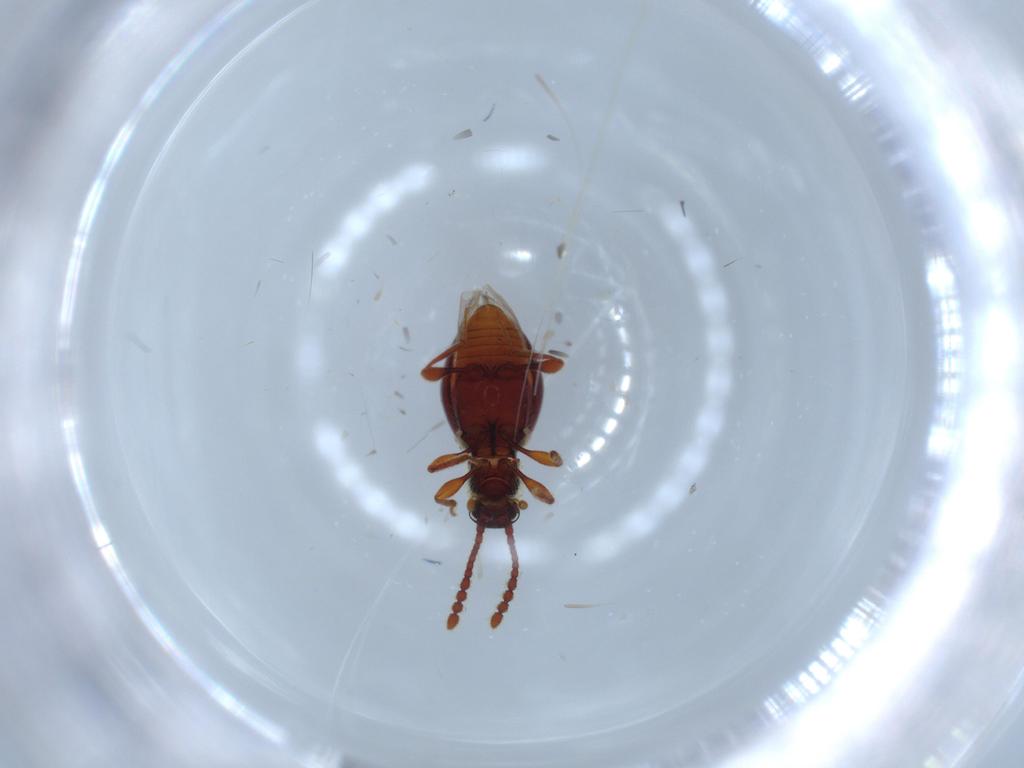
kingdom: Animalia
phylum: Arthropoda
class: Insecta
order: Coleoptera
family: Staphylinidae
